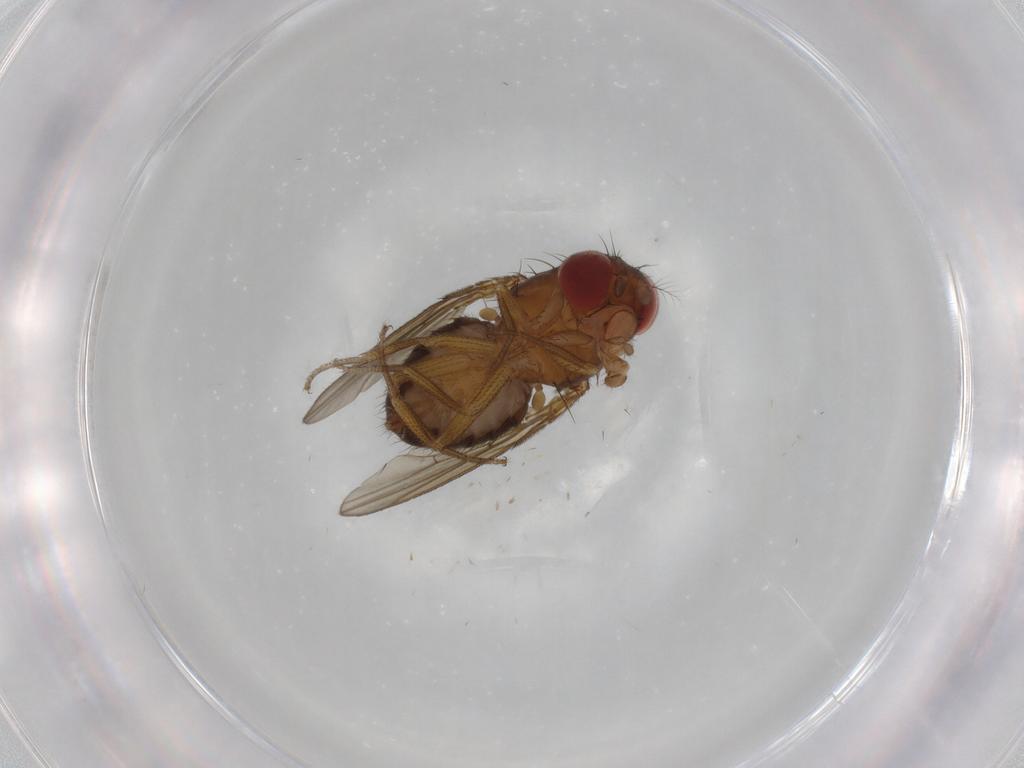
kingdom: Animalia
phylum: Arthropoda
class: Insecta
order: Diptera
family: Drosophilidae
